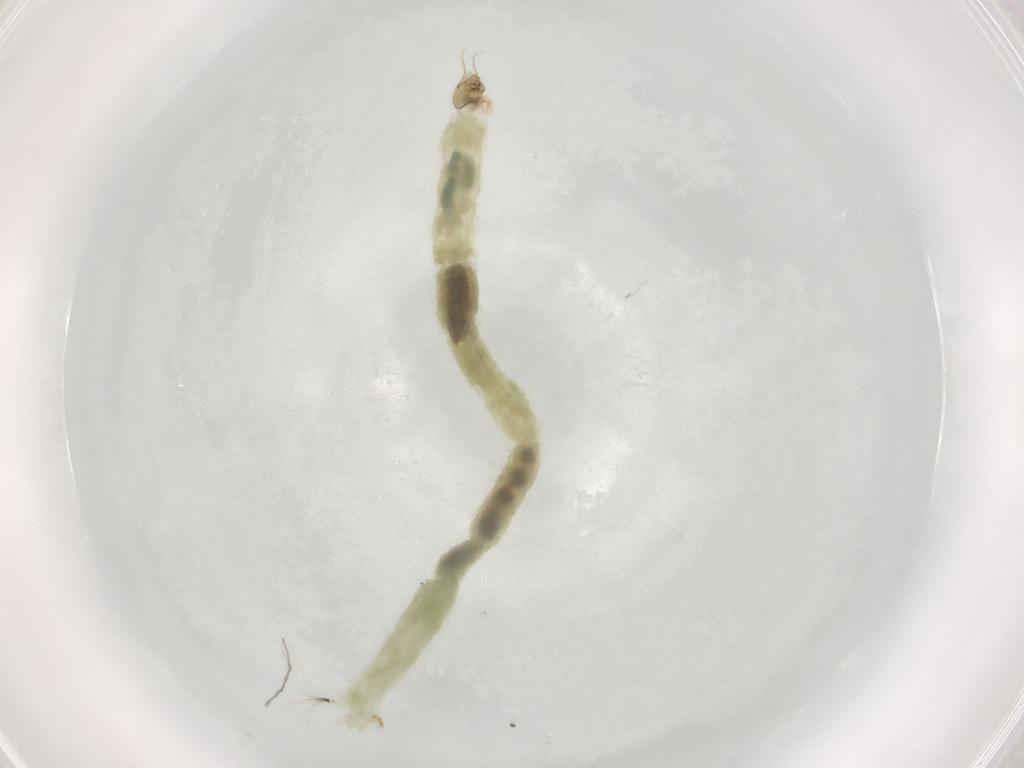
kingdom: Animalia
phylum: Arthropoda
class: Insecta
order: Diptera
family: Chironomidae
